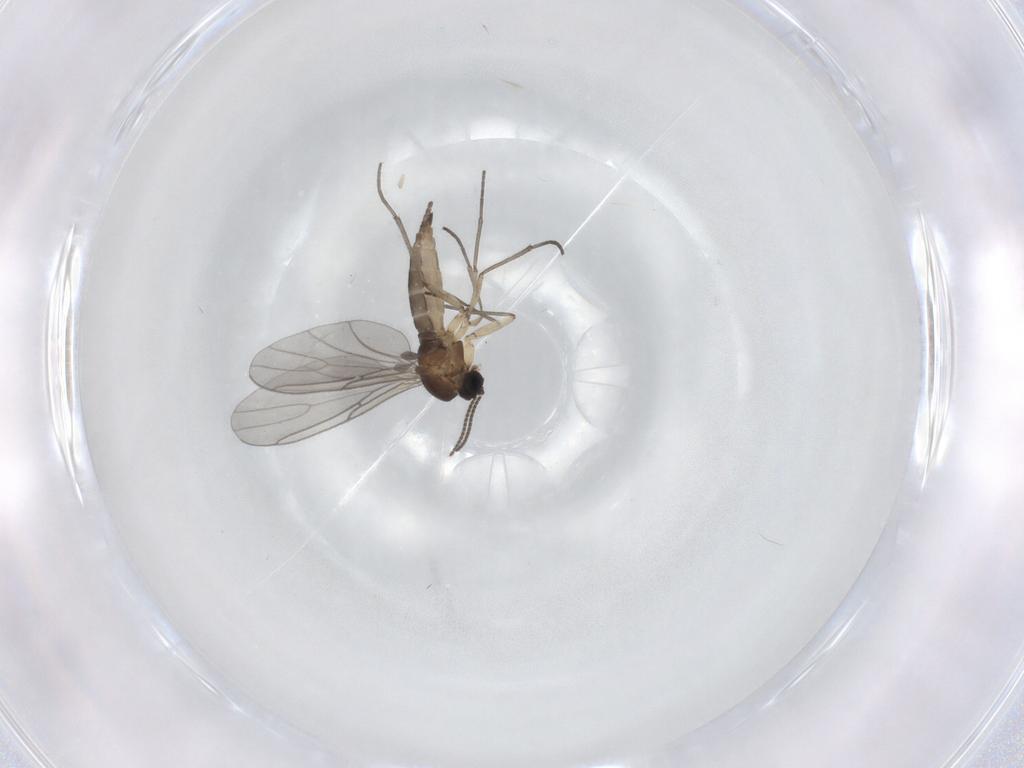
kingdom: Animalia
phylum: Arthropoda
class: Insecta
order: Diptera
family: Sciaridae
